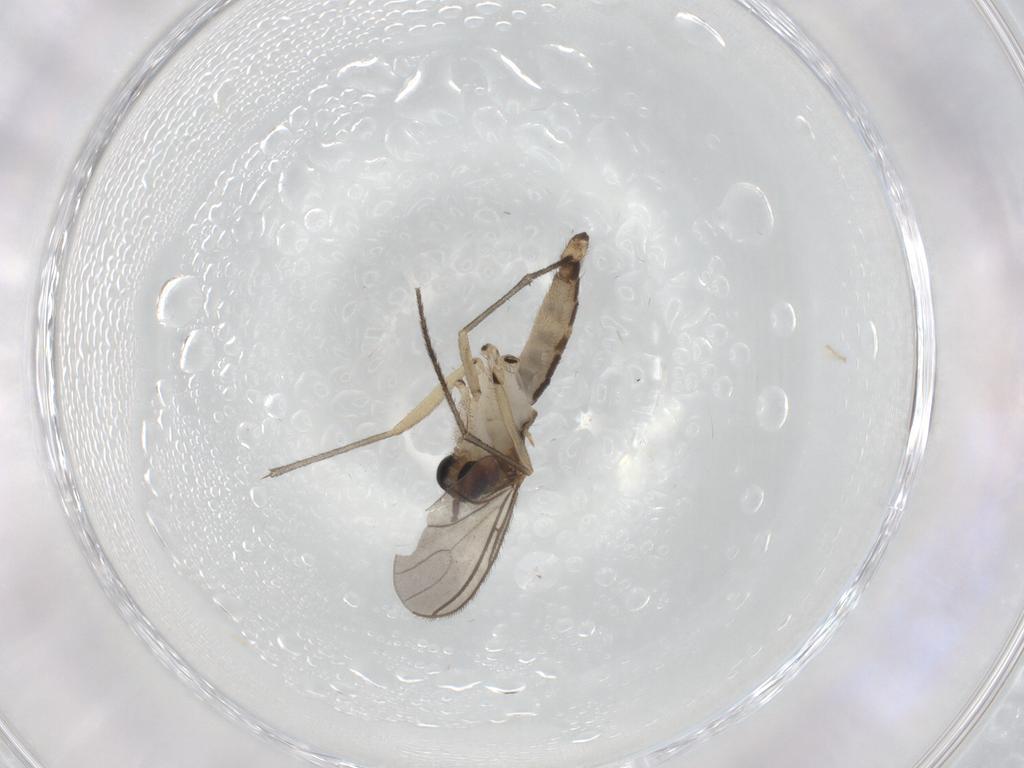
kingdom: Animalia
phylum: Arthropoda
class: Insecta
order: Diptera
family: Sciaridae
